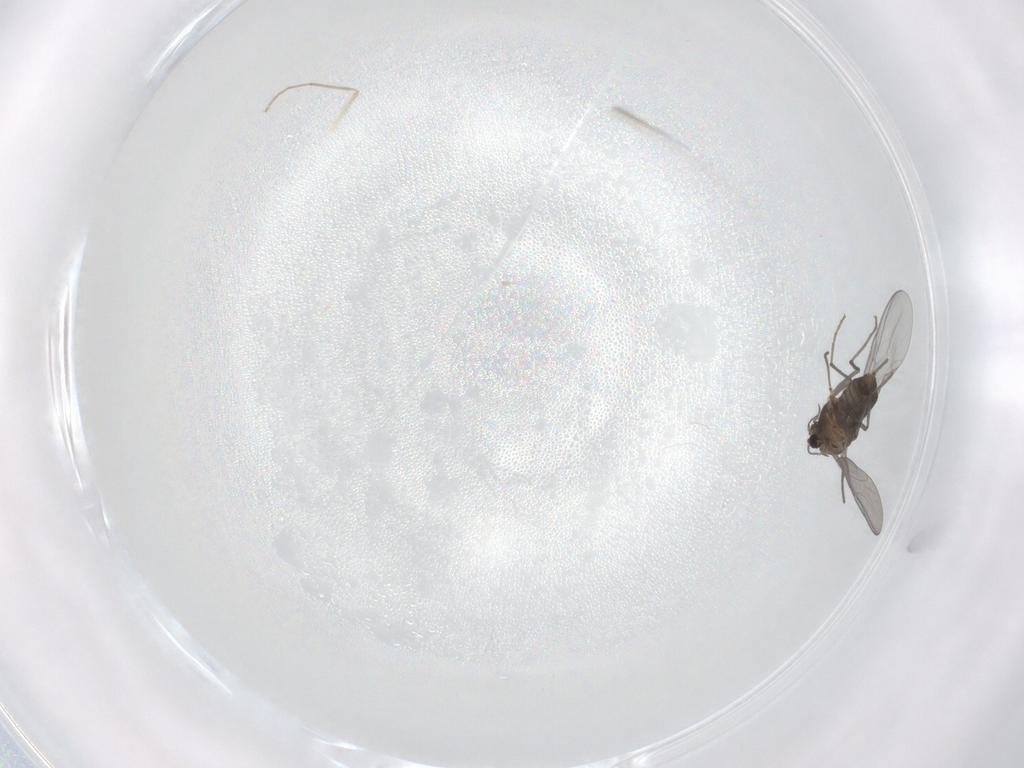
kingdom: Animalia
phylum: Arthropoda
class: Insecta
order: Diptera
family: Chironomidae
